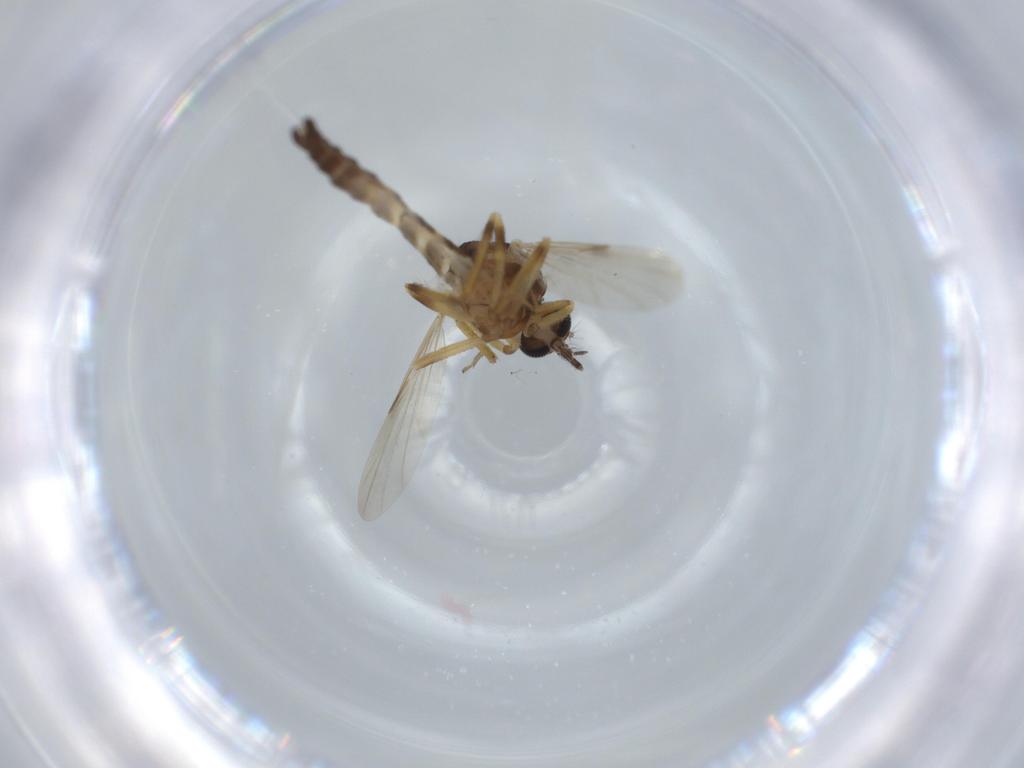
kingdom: Animalia
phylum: Arthropoda
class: Insecta
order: Diptera
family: Ceratopogonidae
